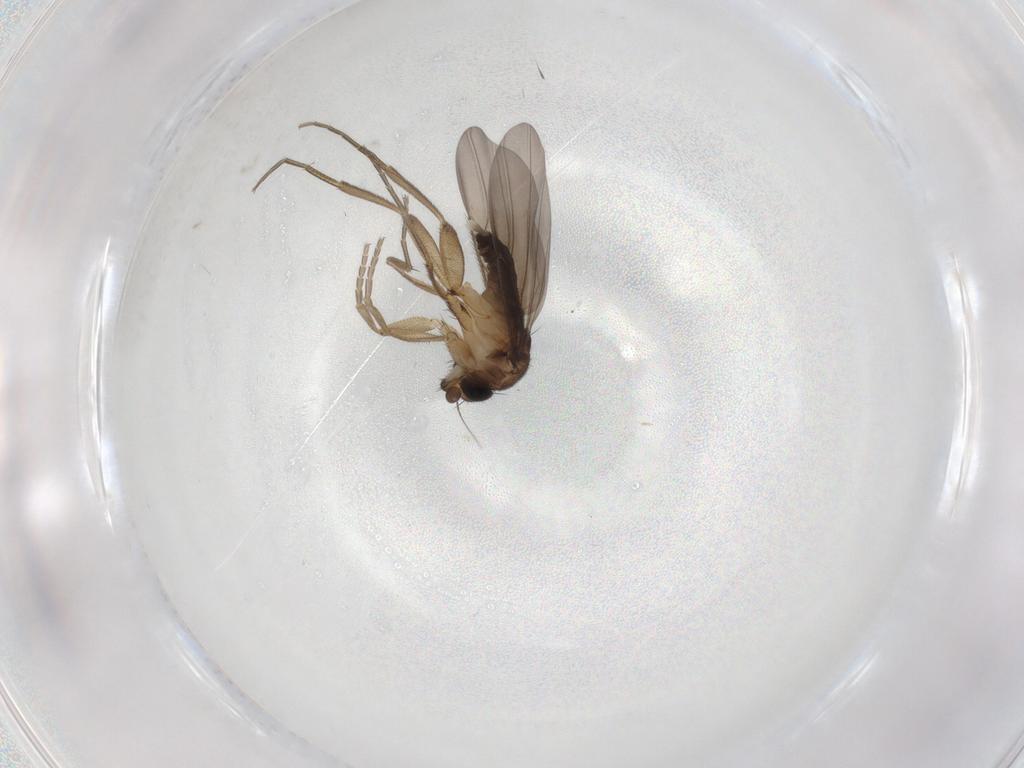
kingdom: Animalia
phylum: Arthropoda
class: Insecta
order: Diptera
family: Phoridae
